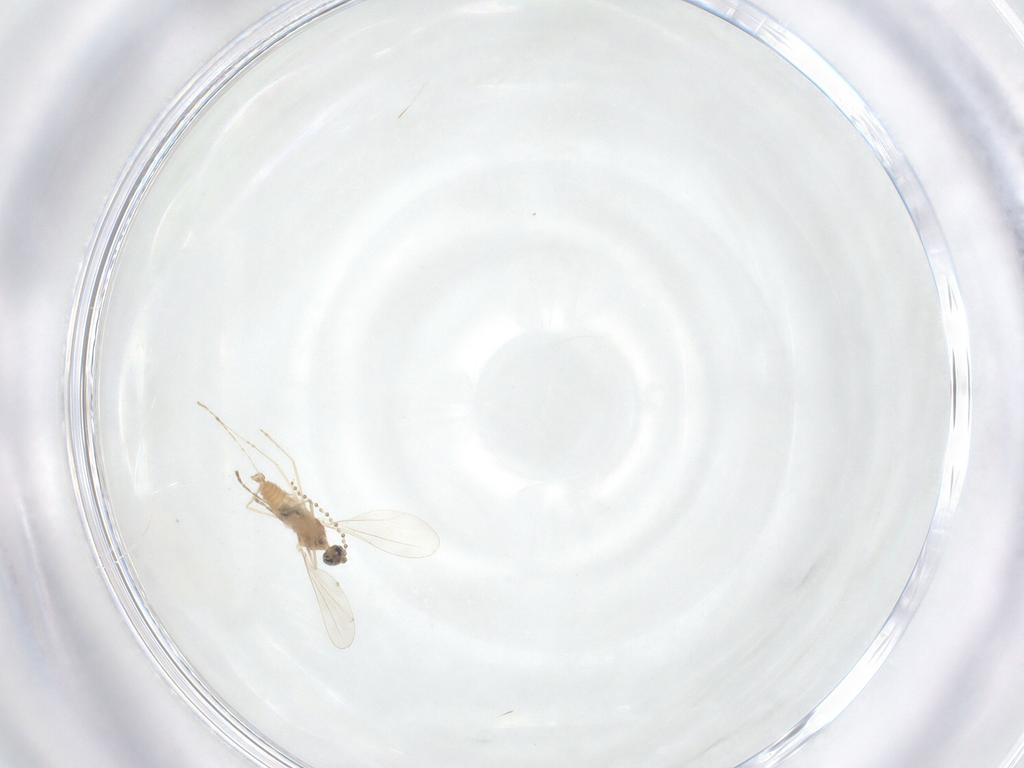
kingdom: Animalia
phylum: Arthropoda
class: Insecta
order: Diptera
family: Cecidomyiidae
